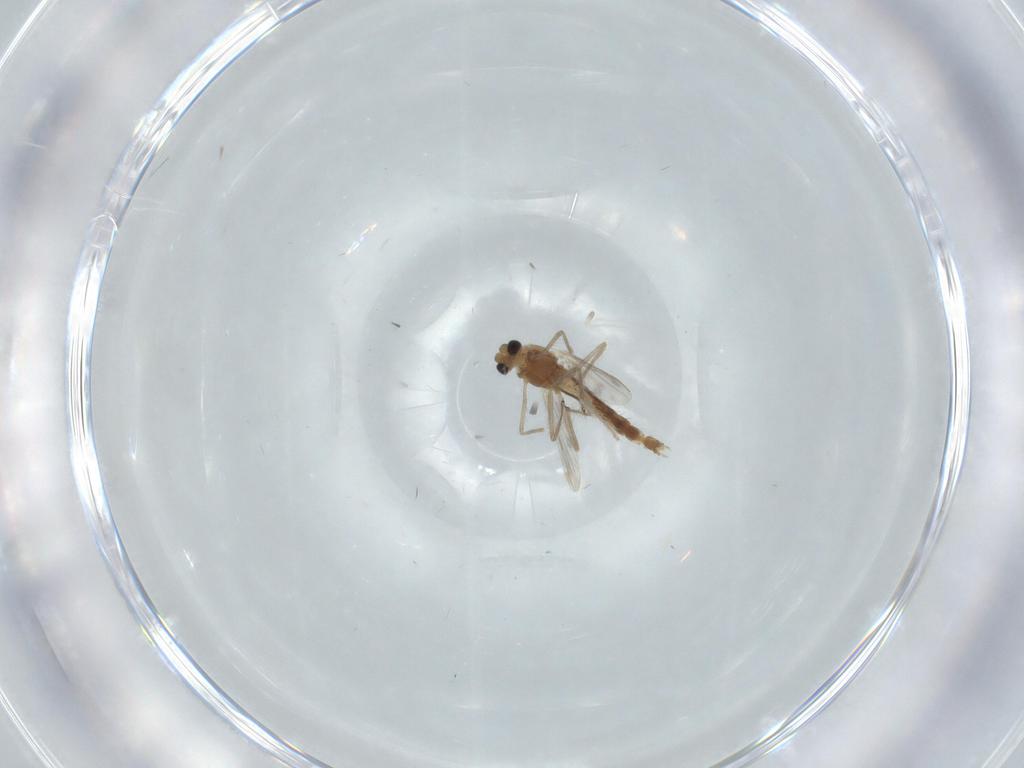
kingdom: Animalia
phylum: Arthropoda
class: Insecta
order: Diptera
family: Chironomidae
